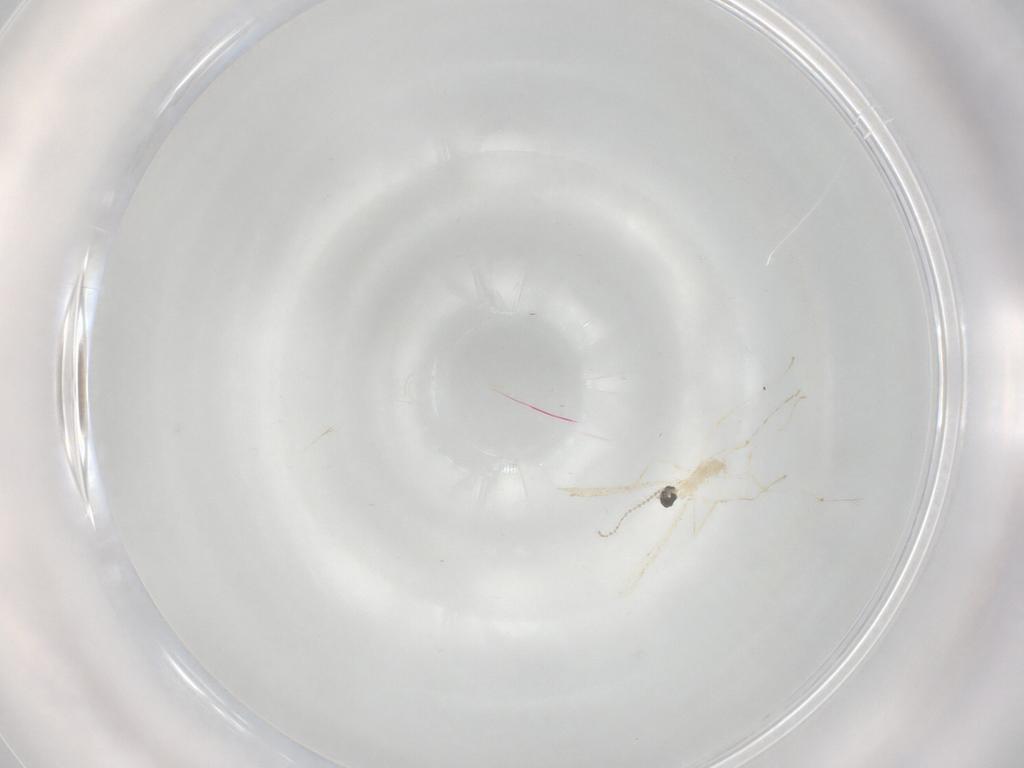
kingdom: Animalia
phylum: Arthropoda
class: Insecta
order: Diptera
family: Cecidomyiidae
